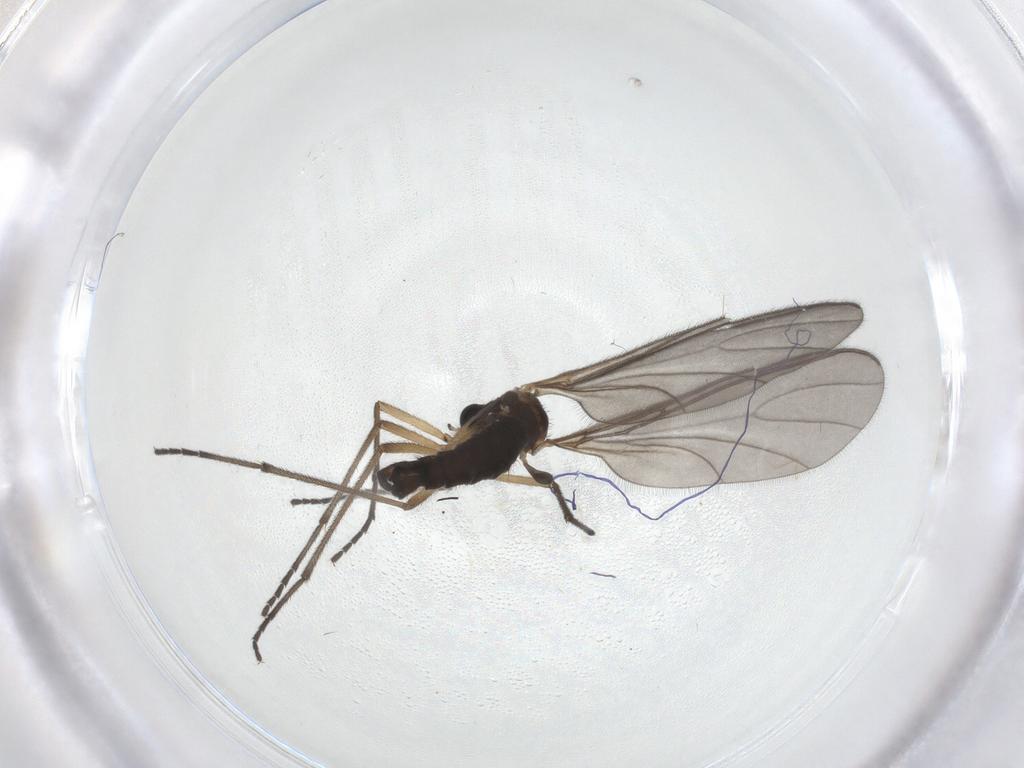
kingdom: Animalia
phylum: Arthropoda
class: Insecta
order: Diptera
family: Sciaridae
